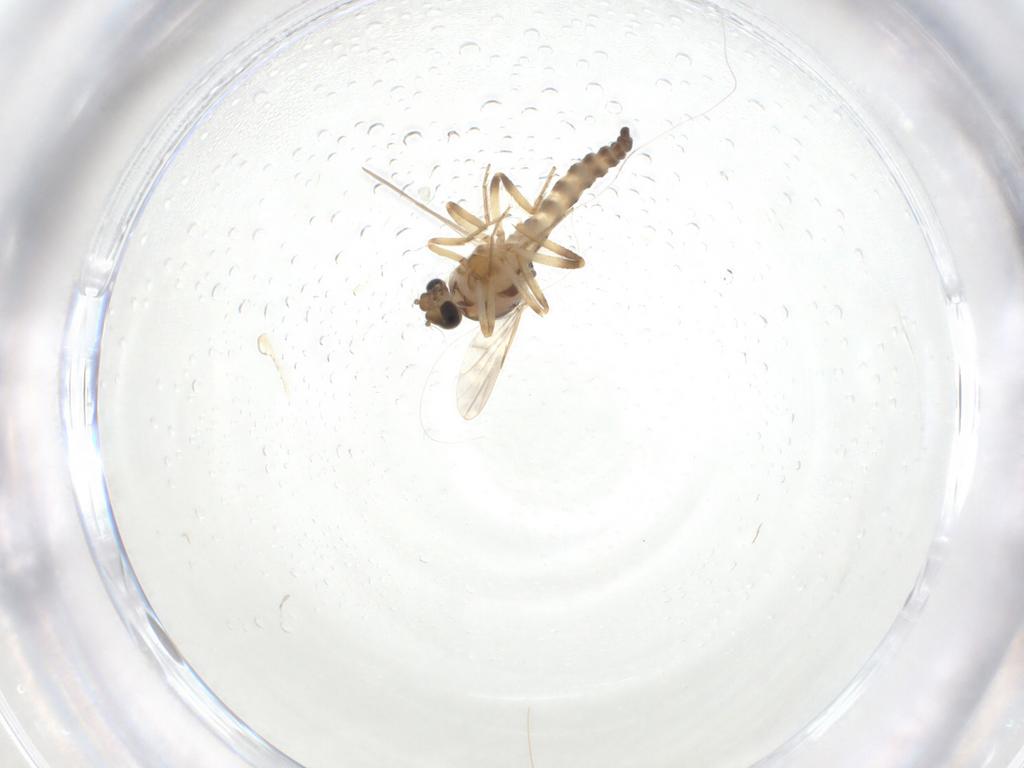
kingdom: Animalia
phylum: Arthropoda
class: Insecta
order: Diptera
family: Ceratopogonidae
